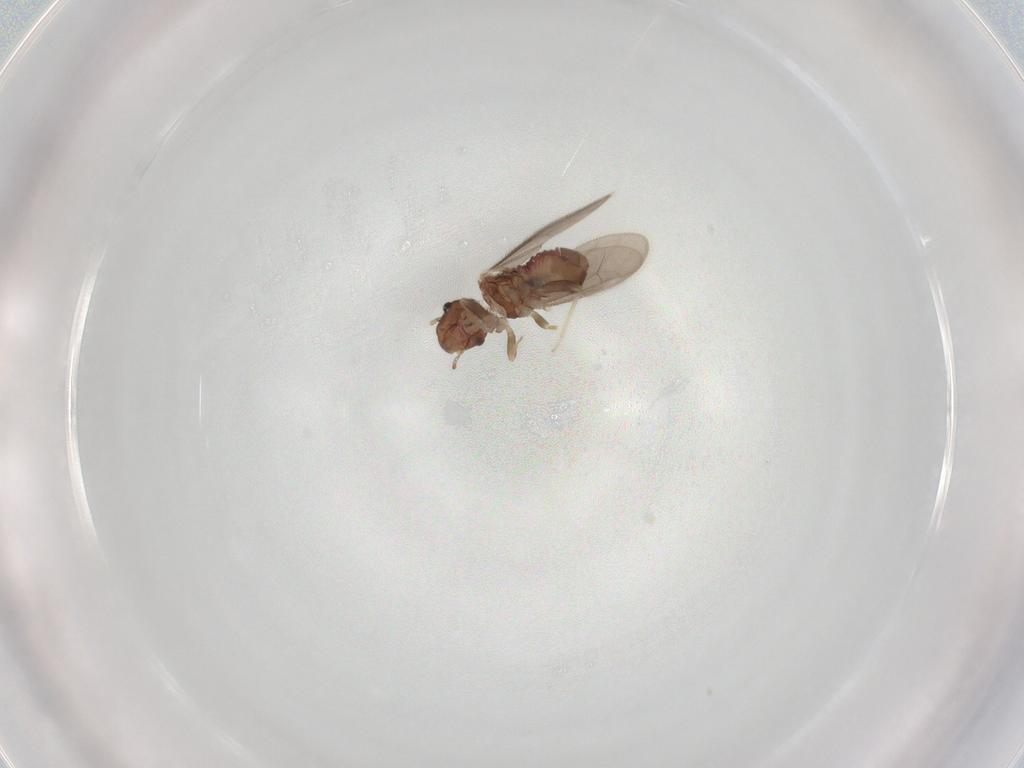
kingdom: Animalia
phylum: Arthropoda
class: Insecta
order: Psocodea
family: Archipsocidae
